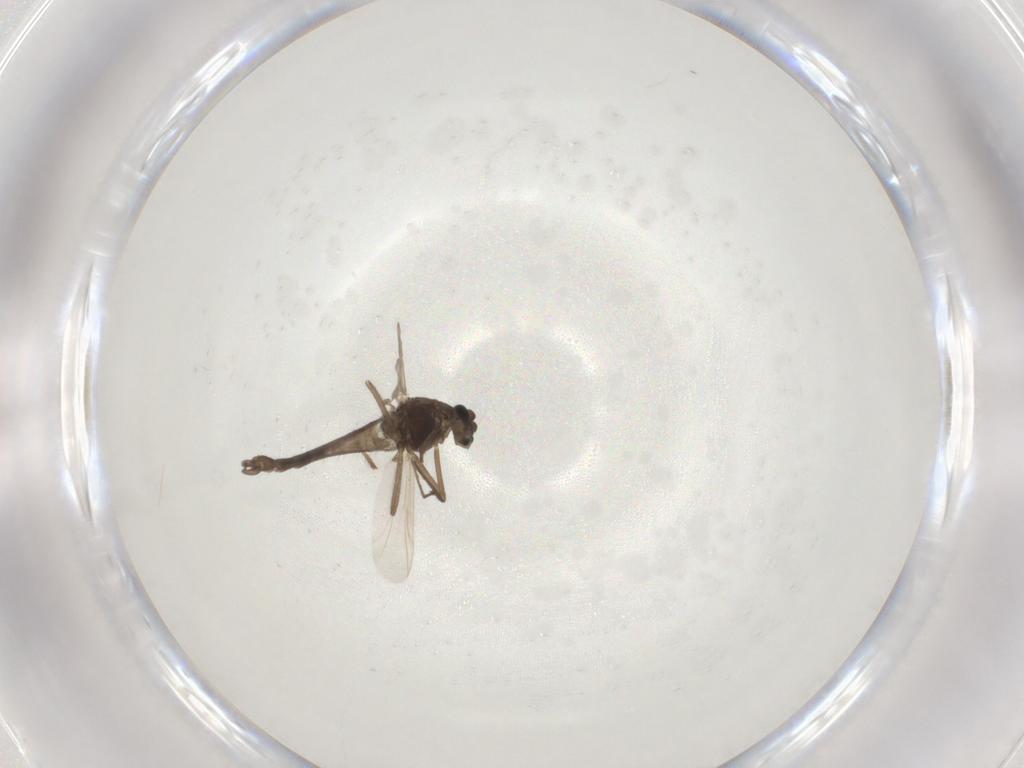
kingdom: Animalia
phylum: Arthropoda
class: Insecta
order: Diptera
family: Chironomidae
